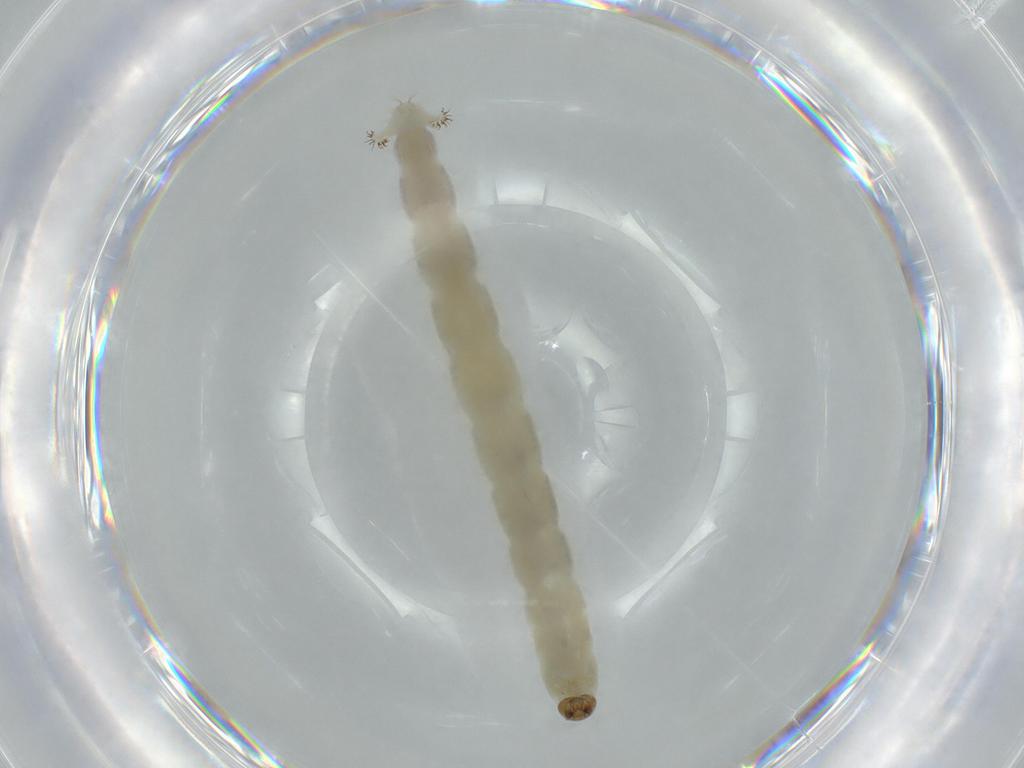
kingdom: Animalia
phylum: Arthropoda
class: Insecta
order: Diptera
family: Chironomidae
